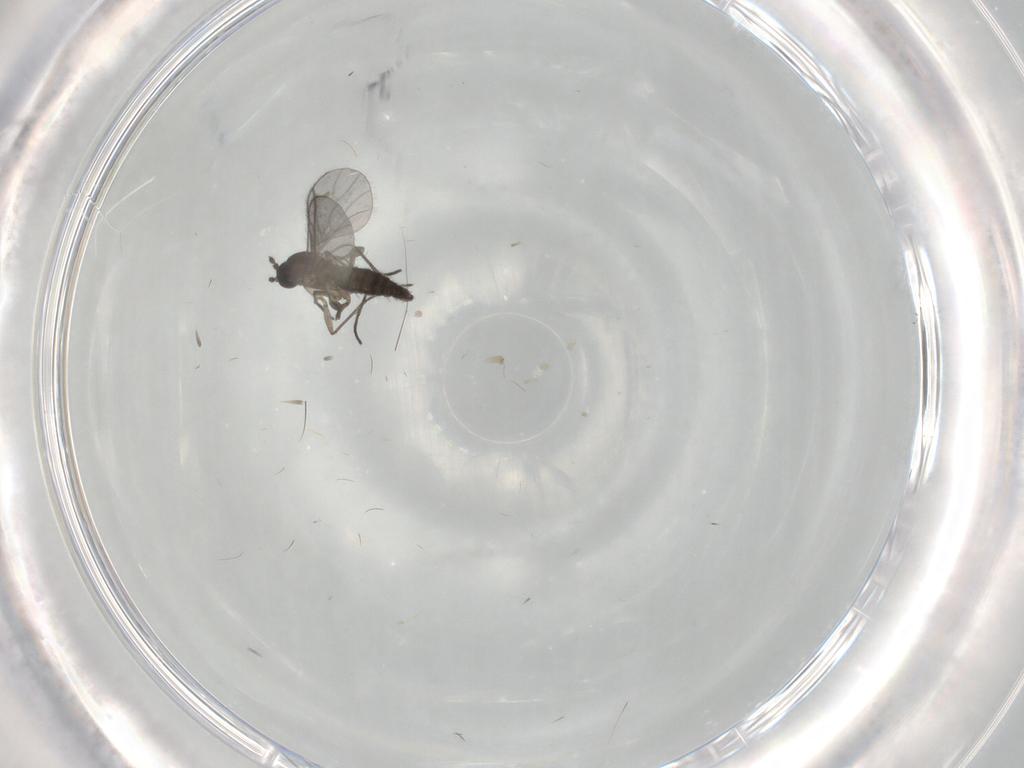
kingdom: Animalia
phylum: Arthropoda
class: Insecta
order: Diptera
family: Sciaridae
